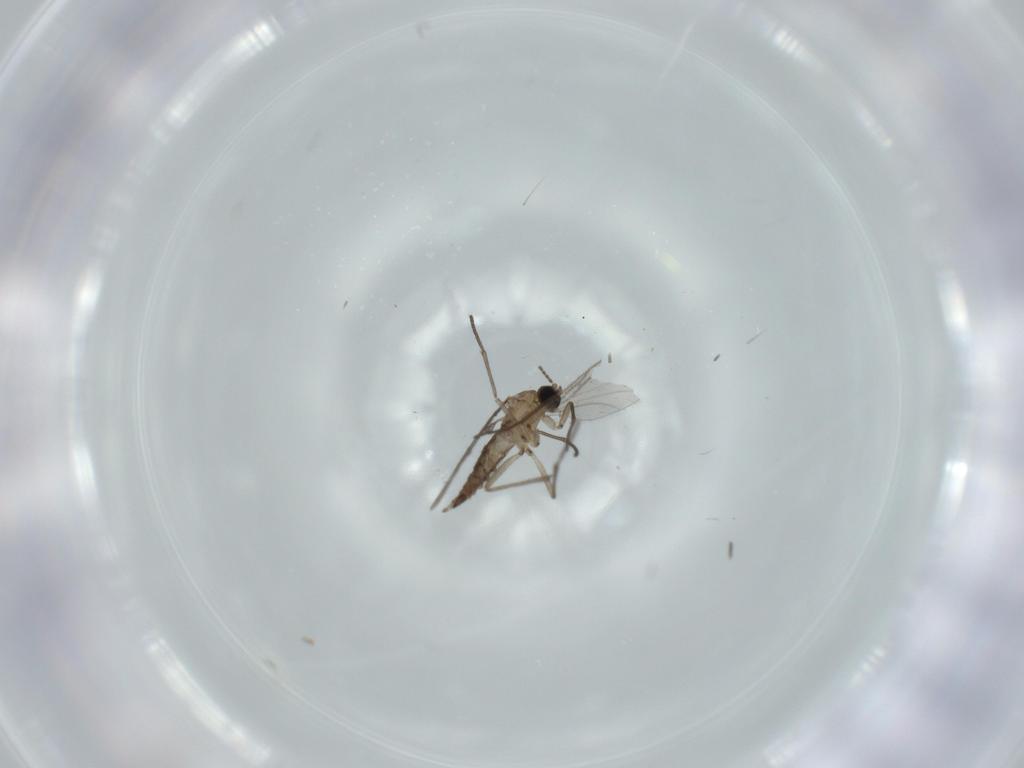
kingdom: Animalia
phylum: Arthropoda
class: Insecta
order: Diptera
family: Sciaridae
